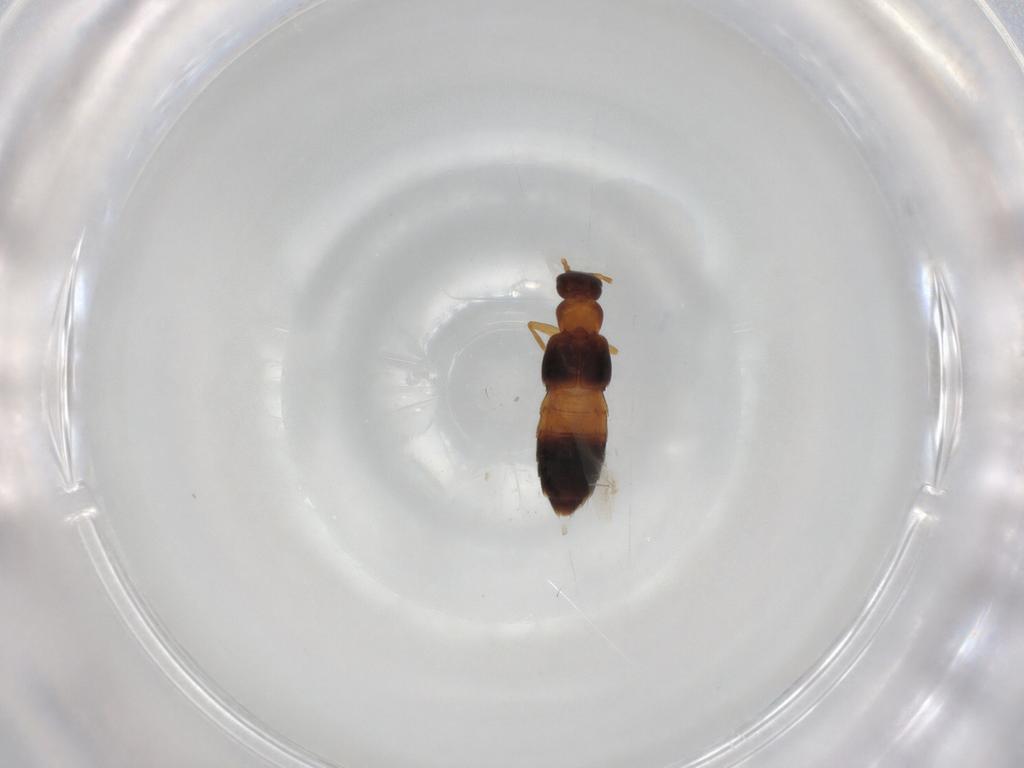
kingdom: Animalia
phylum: Arthropoda
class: Insecta
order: Coleoptera
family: Staphylinidae
